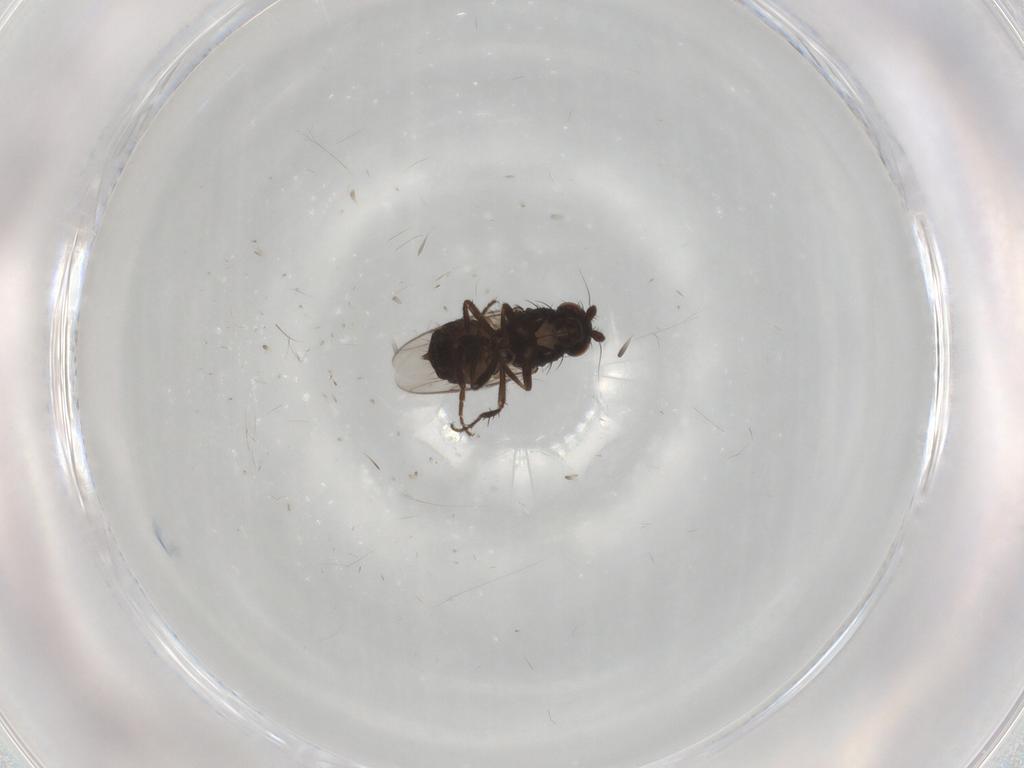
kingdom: Animalia
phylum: Arthropoda
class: Insecta
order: Diptera
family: Sphaeroceridae
